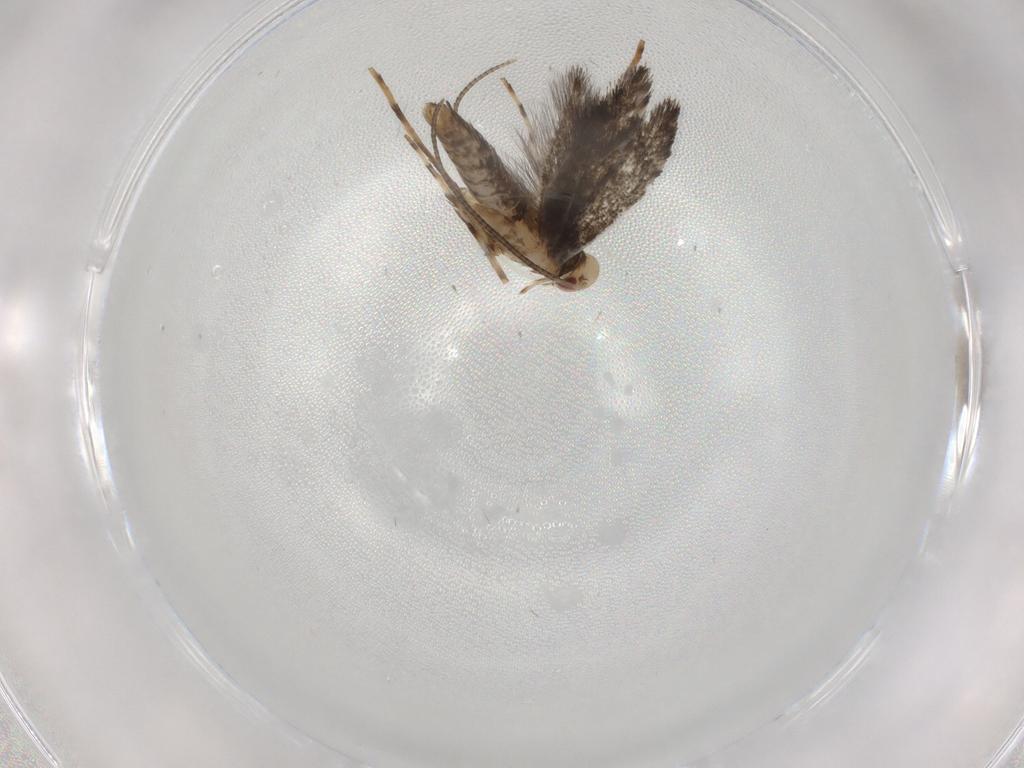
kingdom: Animalia
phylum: Arthropoda
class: Insecta
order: Lepidoptera
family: Gracillariidae
